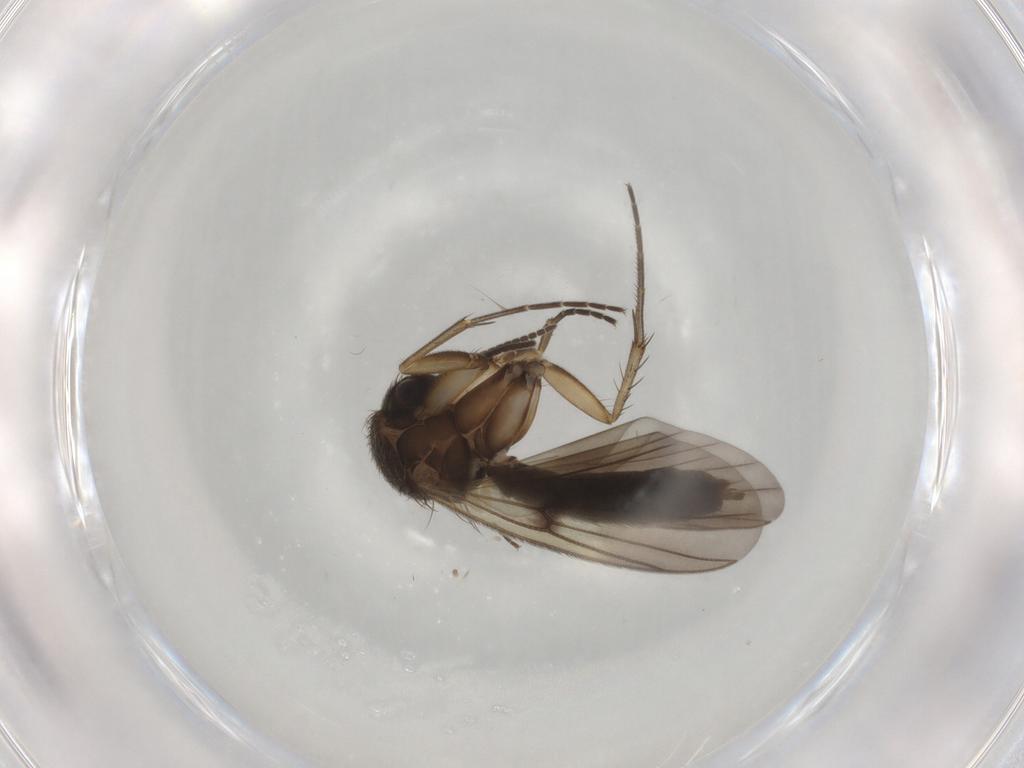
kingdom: Animalia
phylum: Arthropoda
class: Insecta
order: Diptera
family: Mycetophilidae
